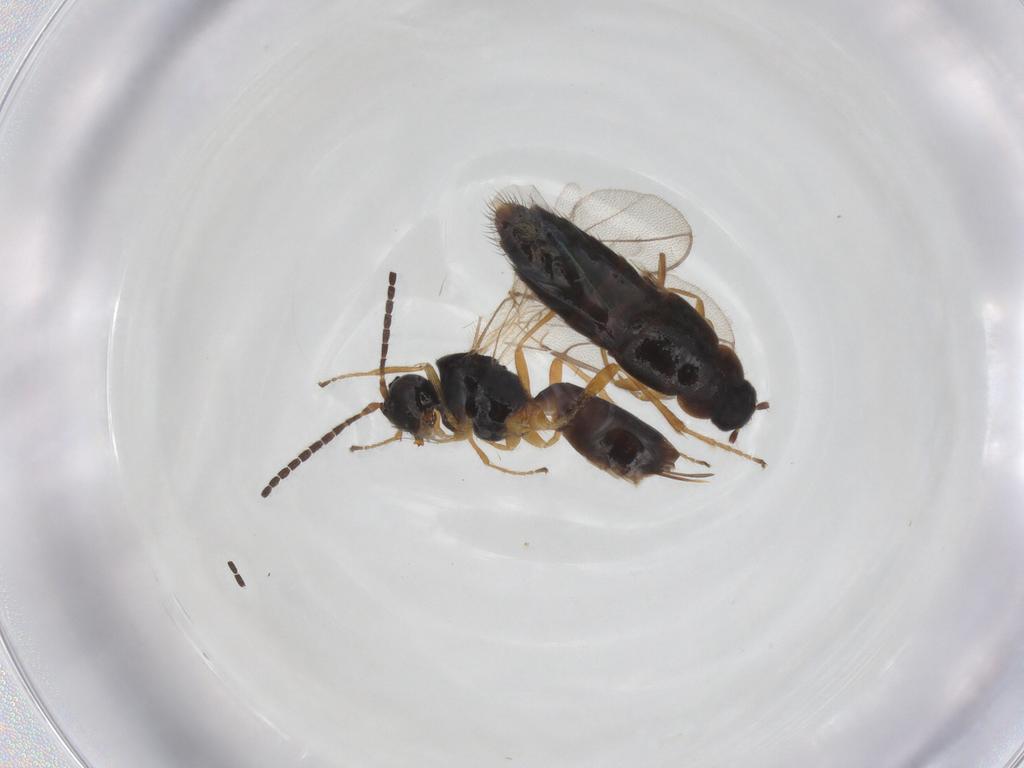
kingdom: Animalia
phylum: Arthropoda
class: Insecta
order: Hymenoptera
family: Braconidae
